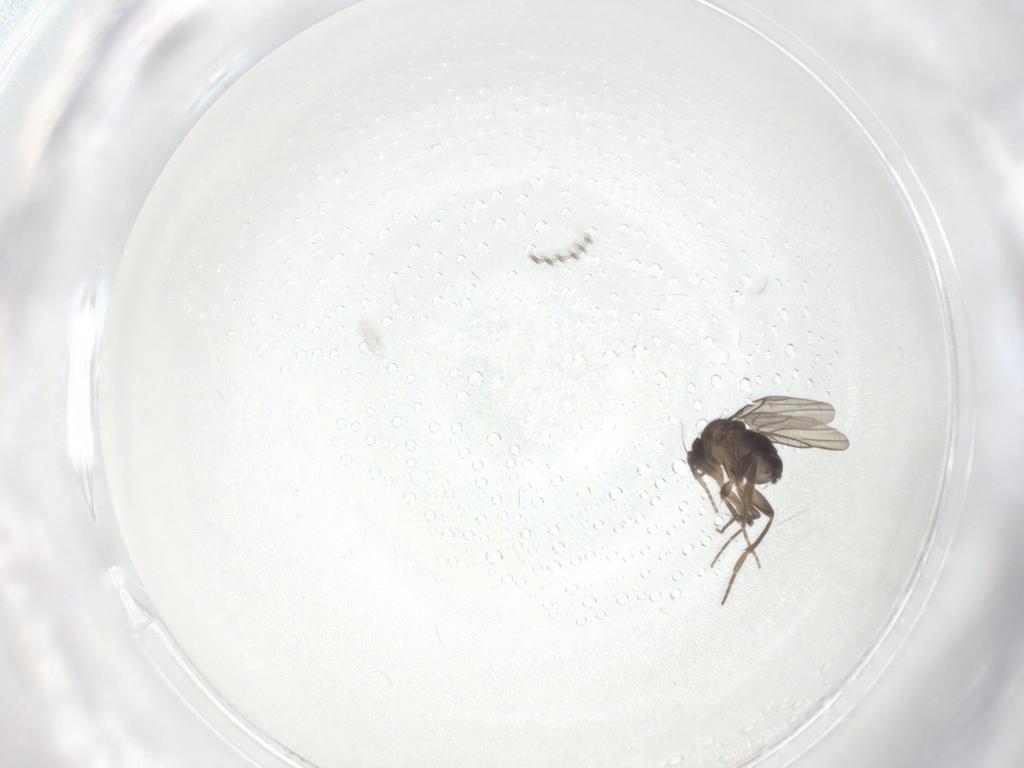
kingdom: Animalia
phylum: Arthropoda
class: Insecta
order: Diptera
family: Cecidomyiidae
